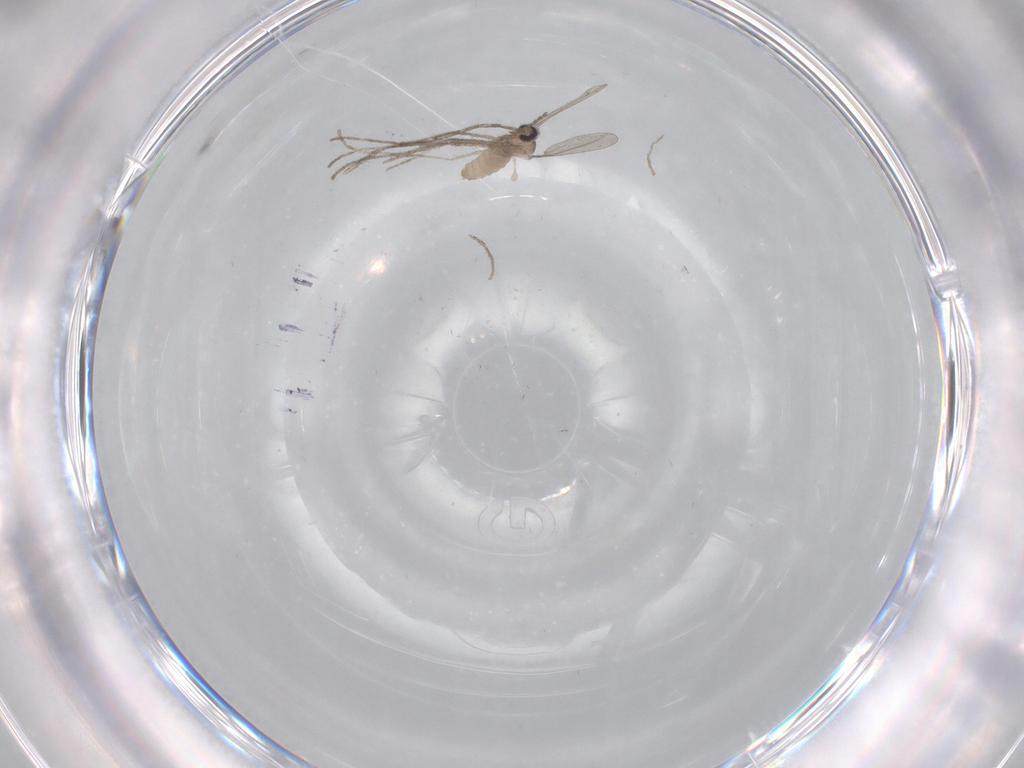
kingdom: Animalia
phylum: Arthropoda
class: Insecta
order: Diptera
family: Cecidomyiidae
